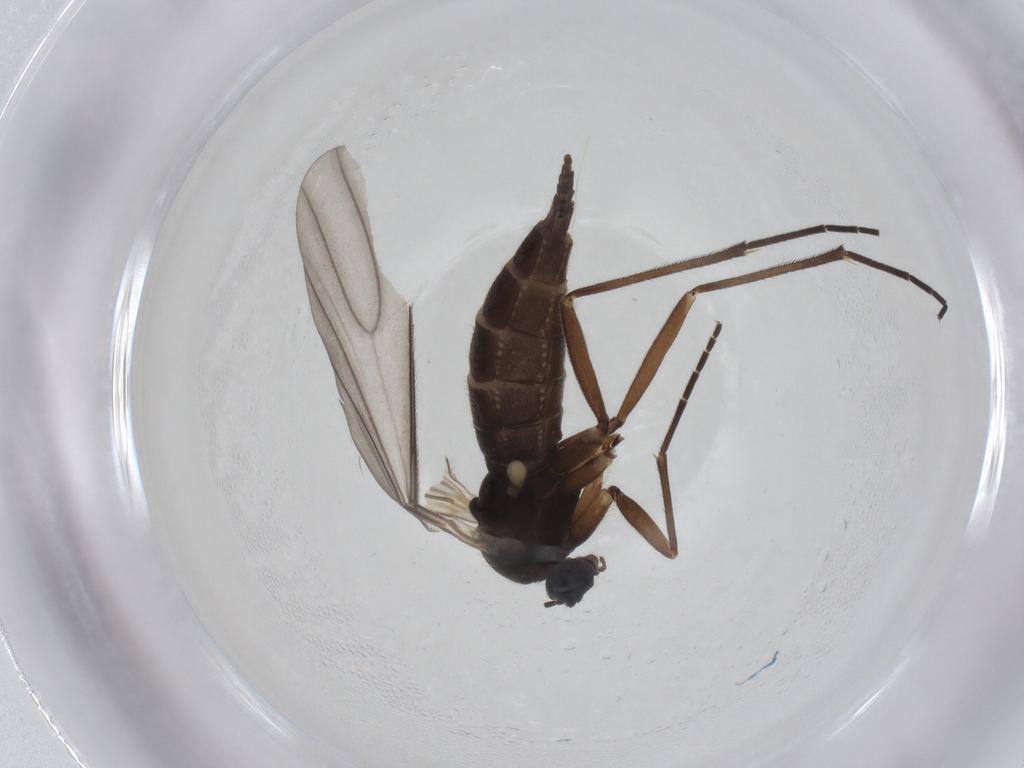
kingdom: Animalia
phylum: Arthropoda
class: Insecta
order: Diptera
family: Sciaridae
